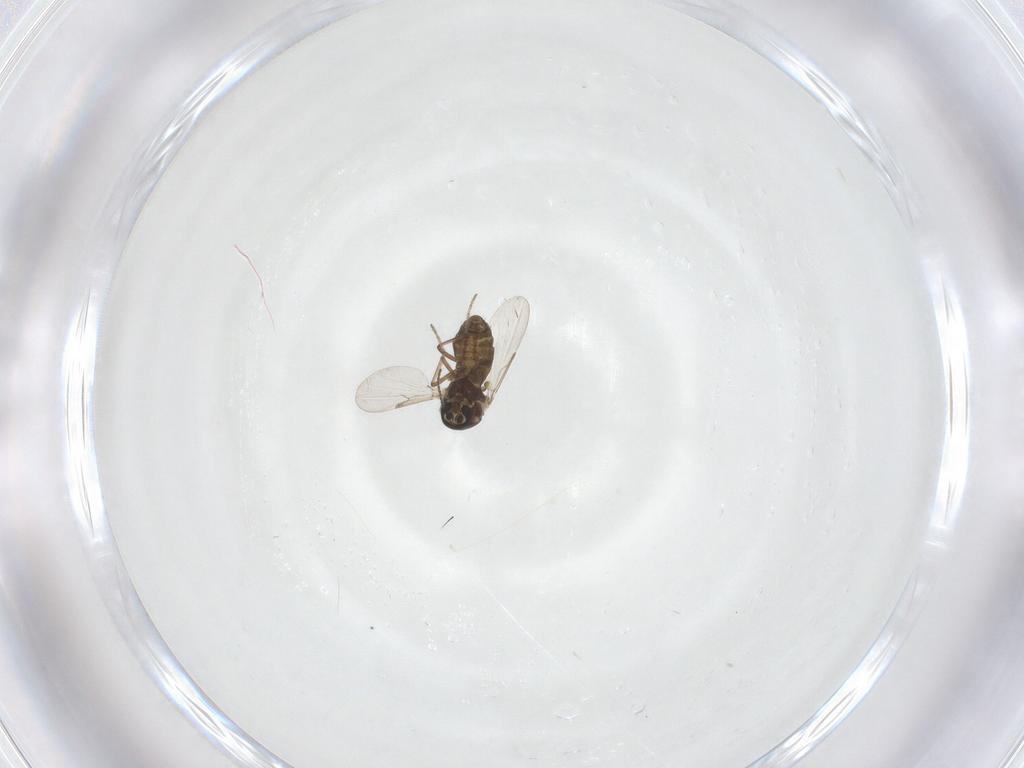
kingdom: Animalia
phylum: Arthropoda
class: Insecta
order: Diptera
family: Ceratopogonidae
